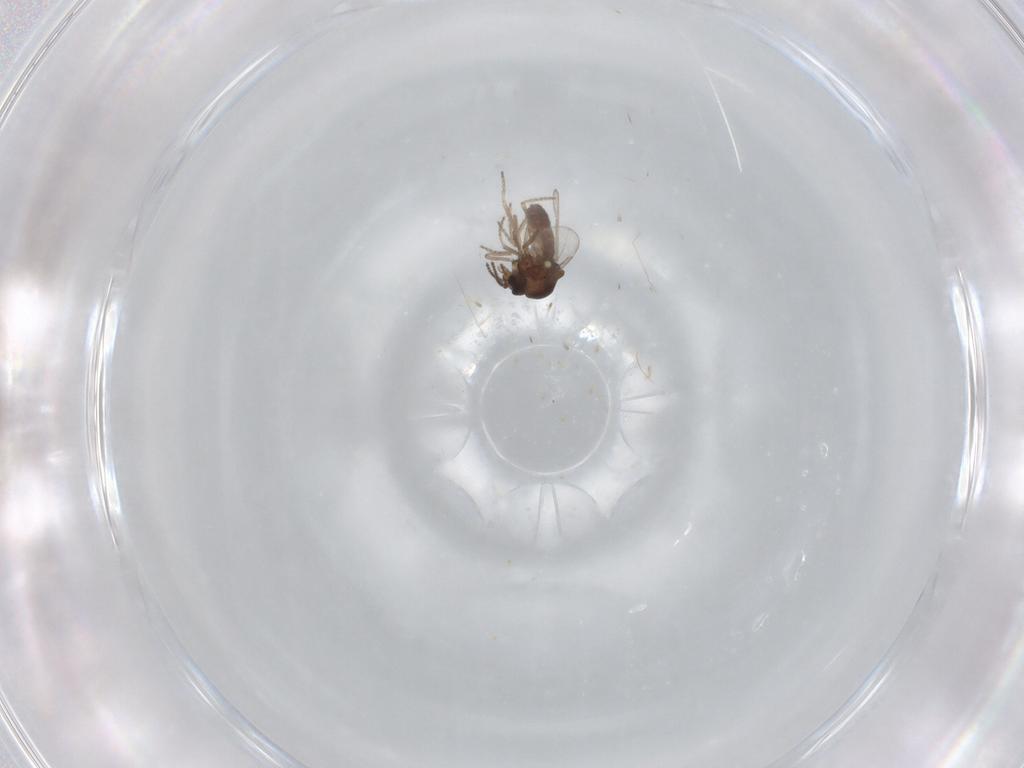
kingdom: Animalia
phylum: Arthropoda
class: Insecta
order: Diptera
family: Ceratopogonidae
